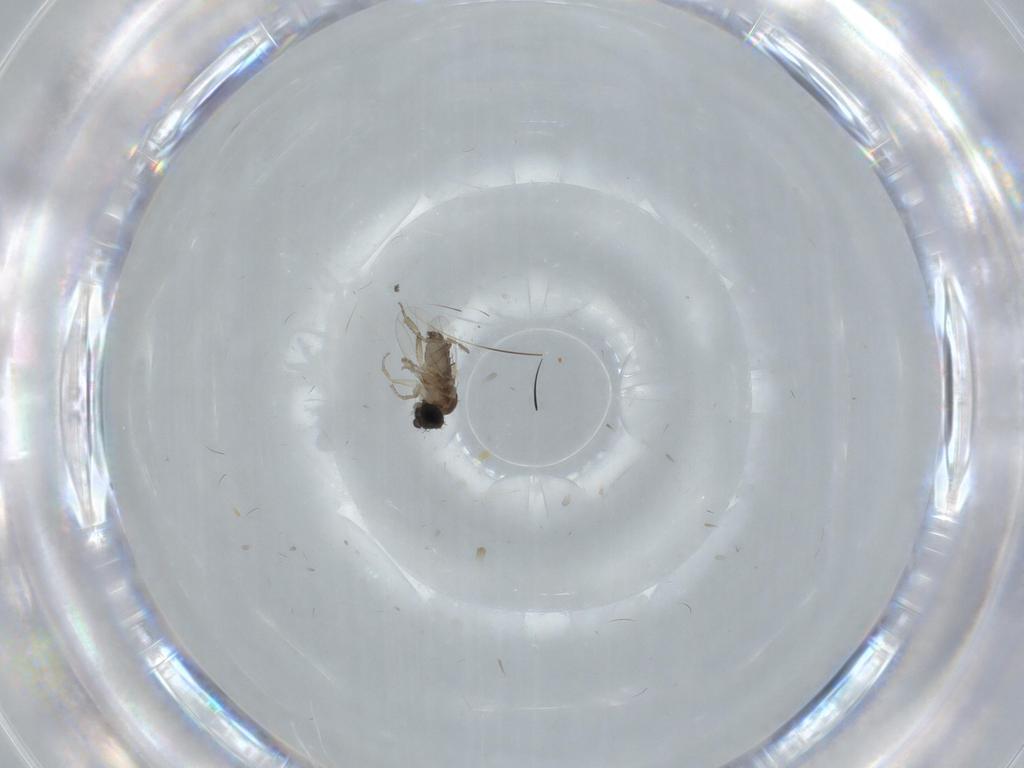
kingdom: Animalia
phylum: Arthropoda
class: Insecta
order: Diptera
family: Phoridae
